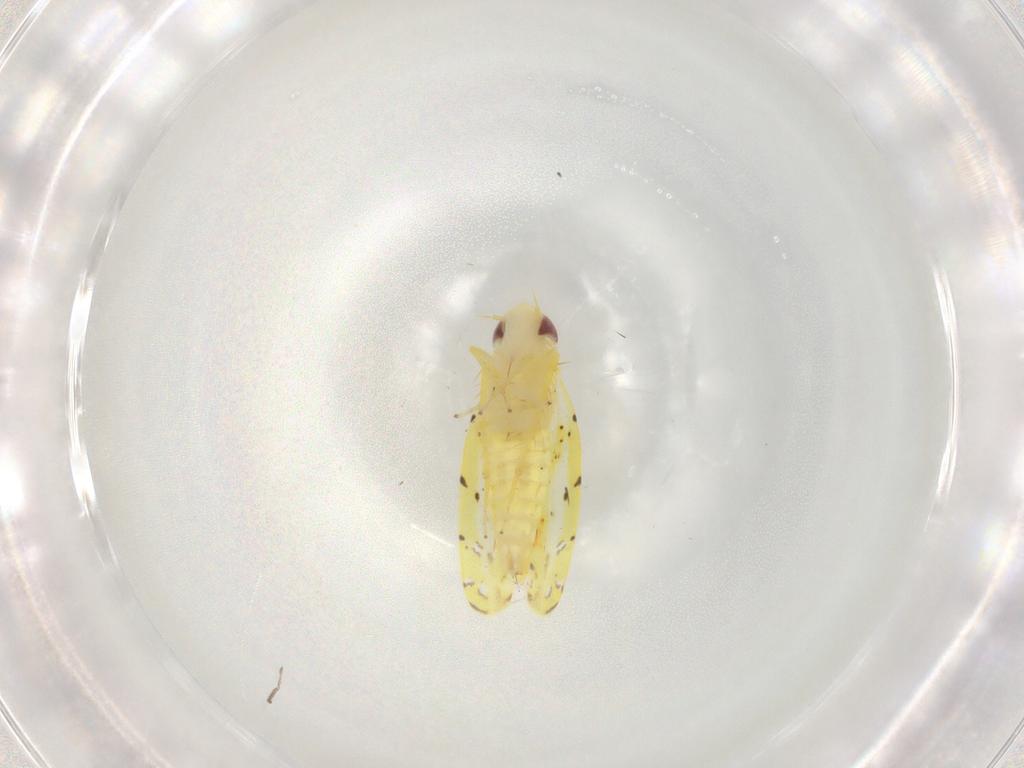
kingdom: Animalia
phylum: Arthropoda
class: Insecta
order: Hemiptera
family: Cicadellidae
